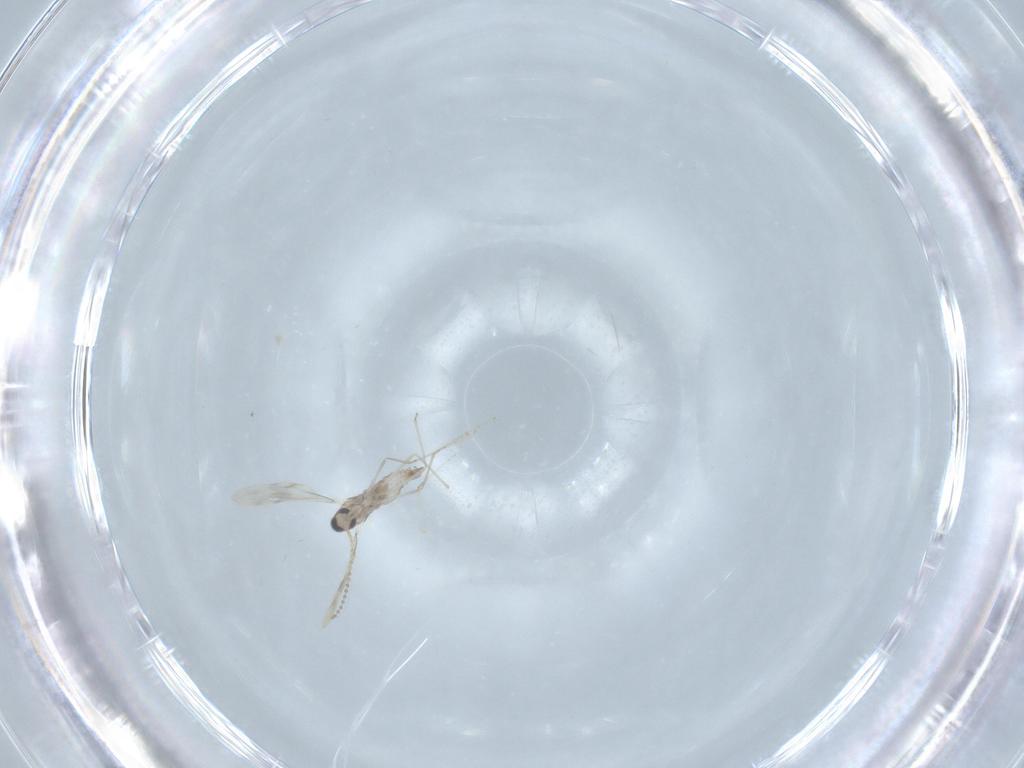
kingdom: Animalia
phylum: Arthropoda
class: Insecta
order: Diptera
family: Cecidomyiidae
